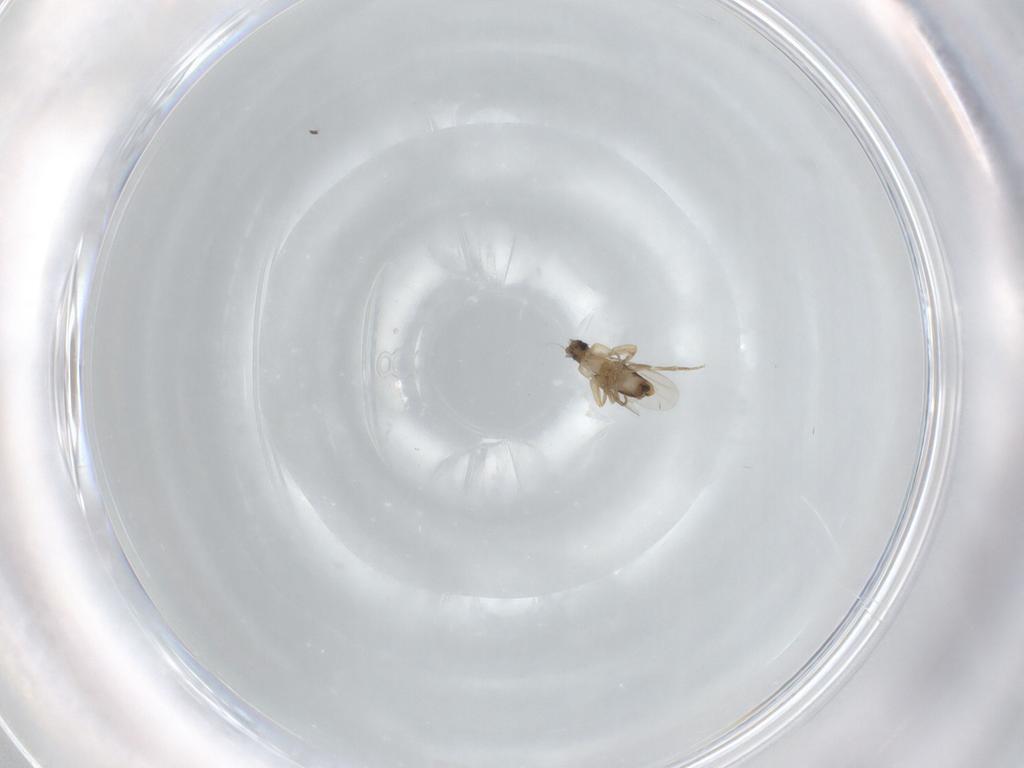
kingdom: Animalia
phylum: Arthropoda
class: Insecta
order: Diptera
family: Phoridae
